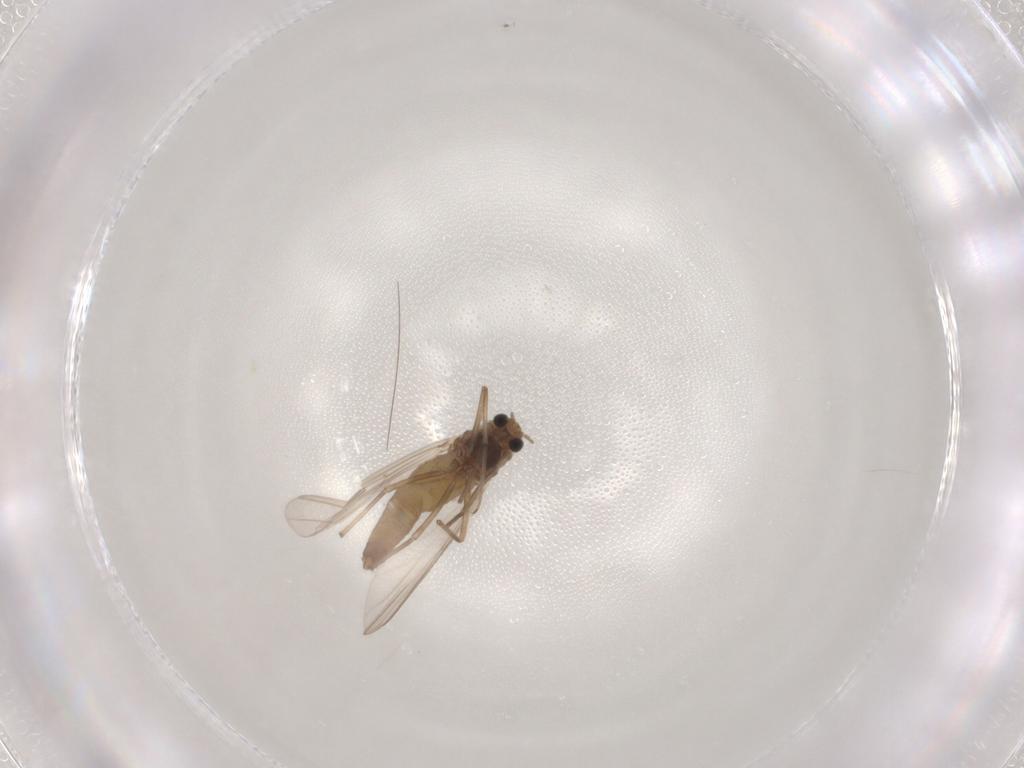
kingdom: Animalia
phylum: Arthropoda
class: Insecta
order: Diptera
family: Chironomidae
